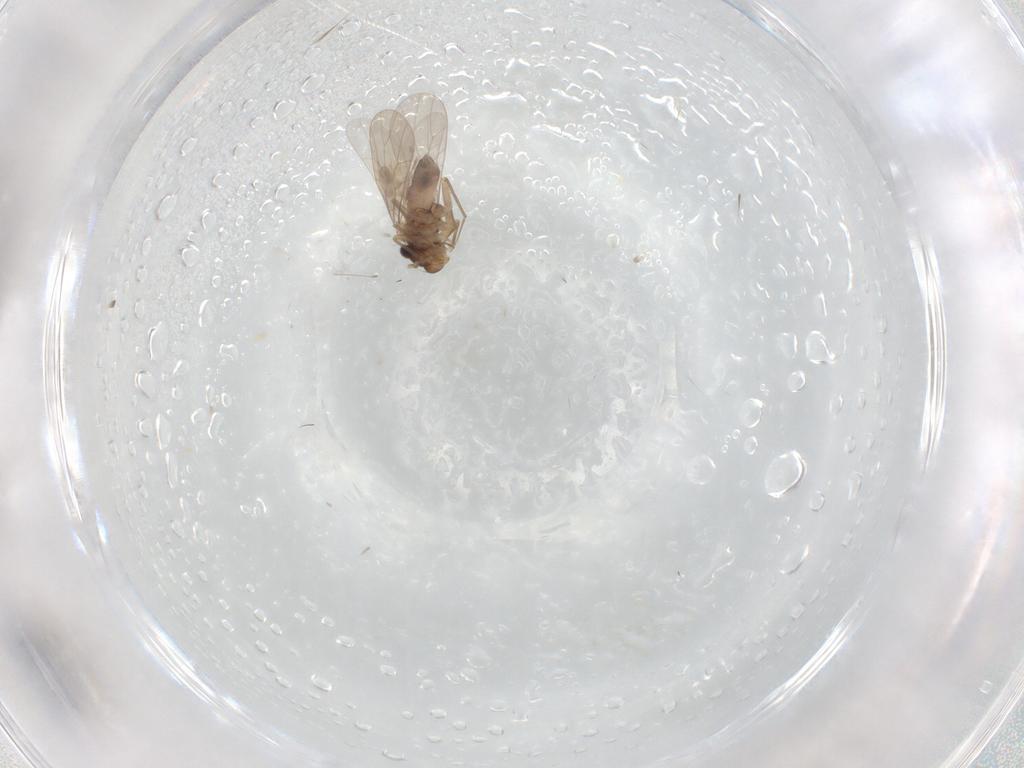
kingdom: Animalia
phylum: Arthropoda
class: Insecta
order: Psocodea
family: Lepidopsocidae
